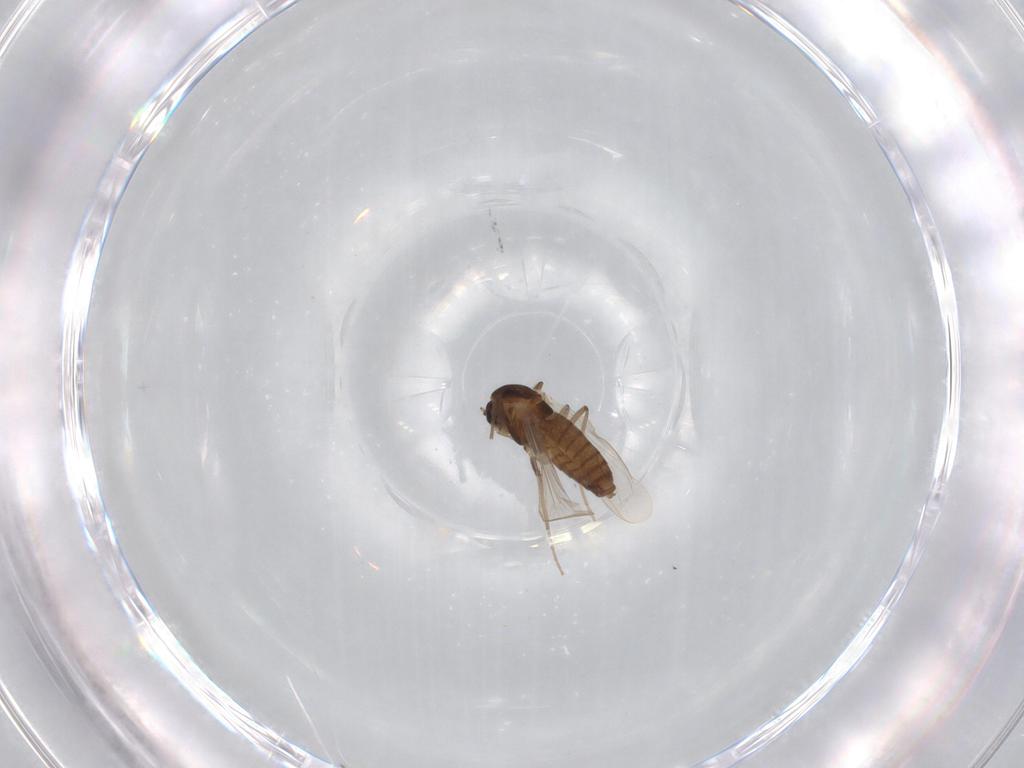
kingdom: Animalia
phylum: Arthropoda
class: Insecta
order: Diptera
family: Chironomidae
